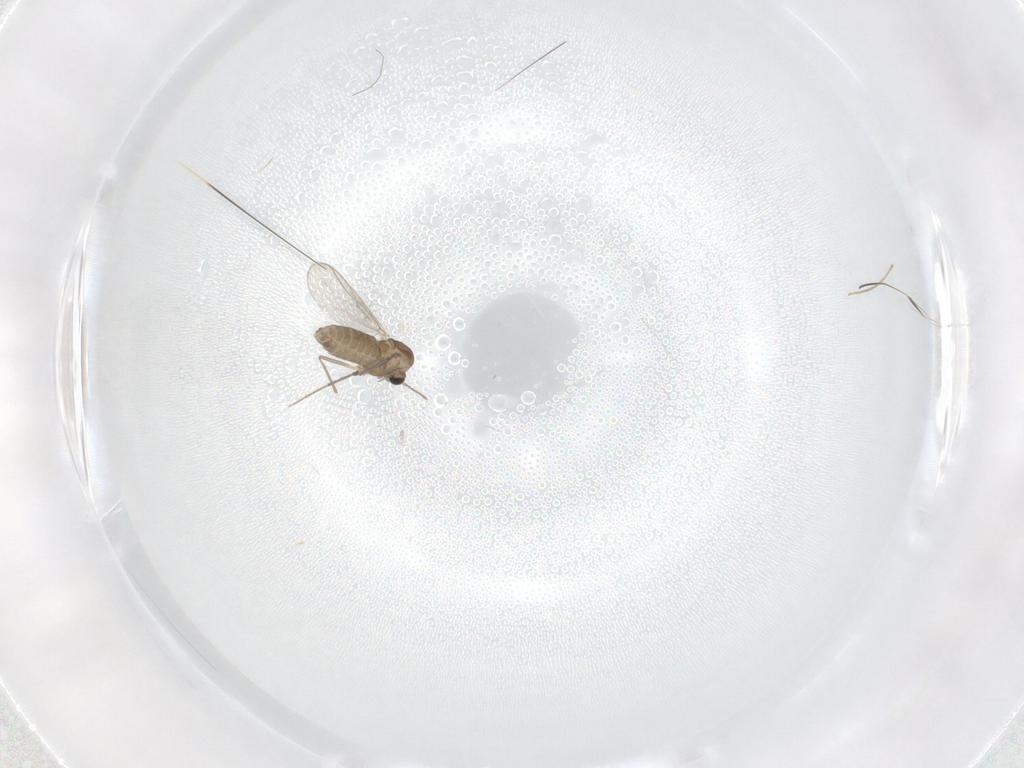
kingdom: Animalia
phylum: Arthropoda
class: Insecta
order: Diptera
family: Chironomidae
